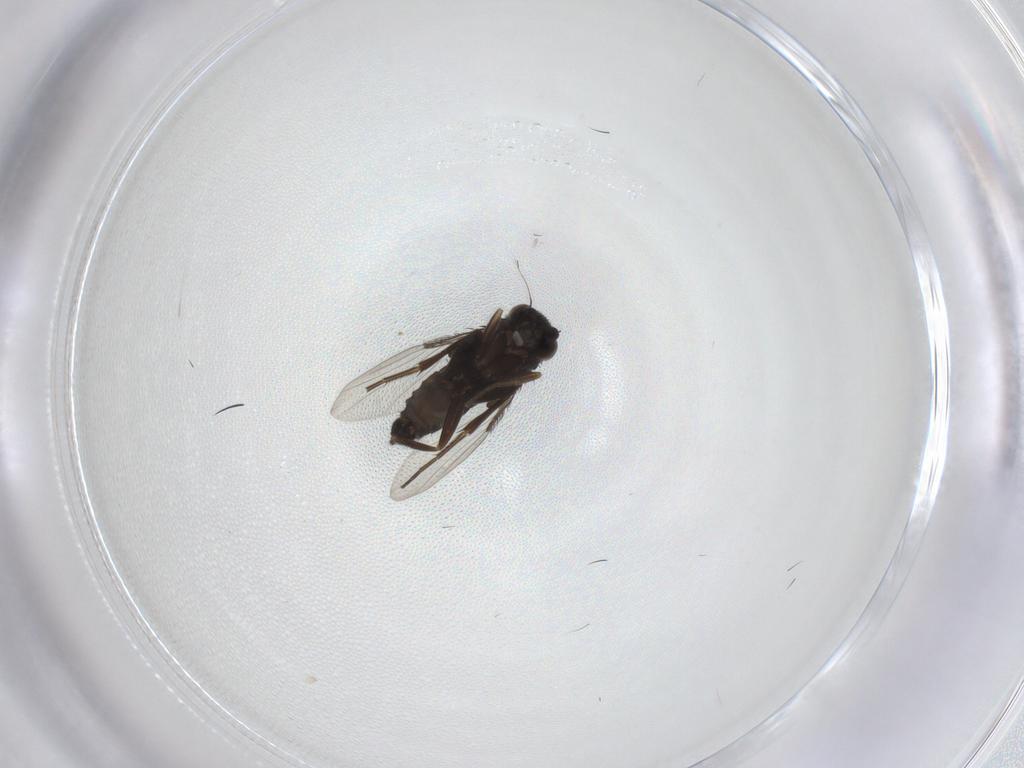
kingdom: Animalia
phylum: Arthropoda
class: Insecta
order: Diptera
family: Phoridae
